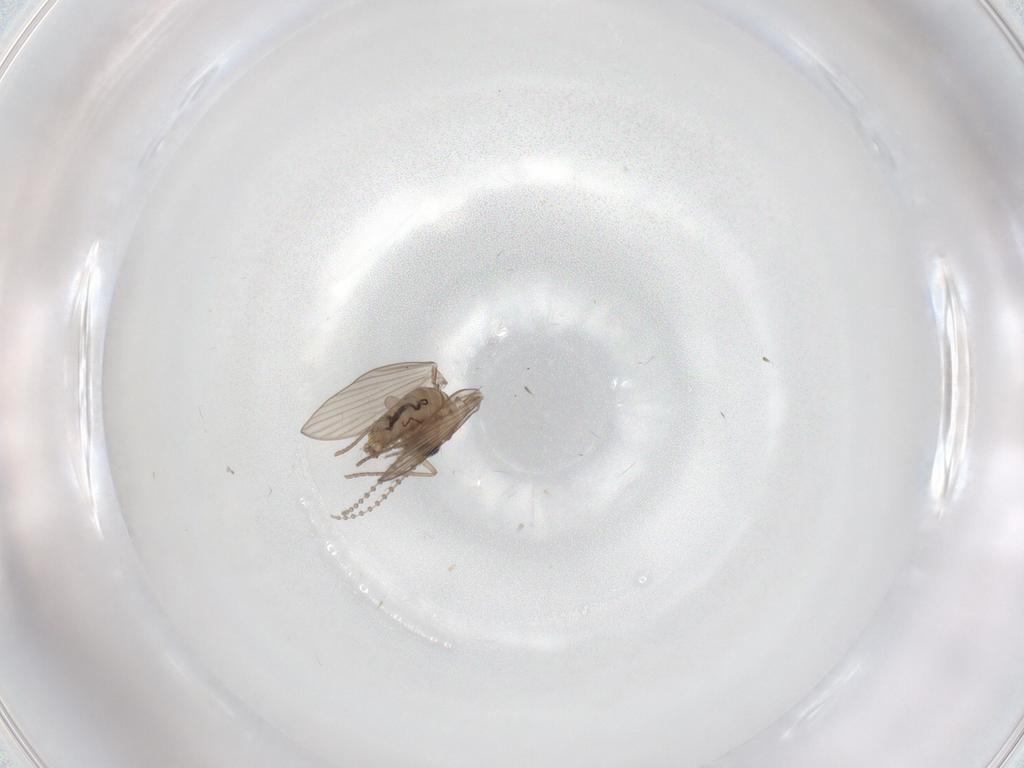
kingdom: Animalia
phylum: Arthropoda
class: Insecta
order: Diptera
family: Psychodidae
